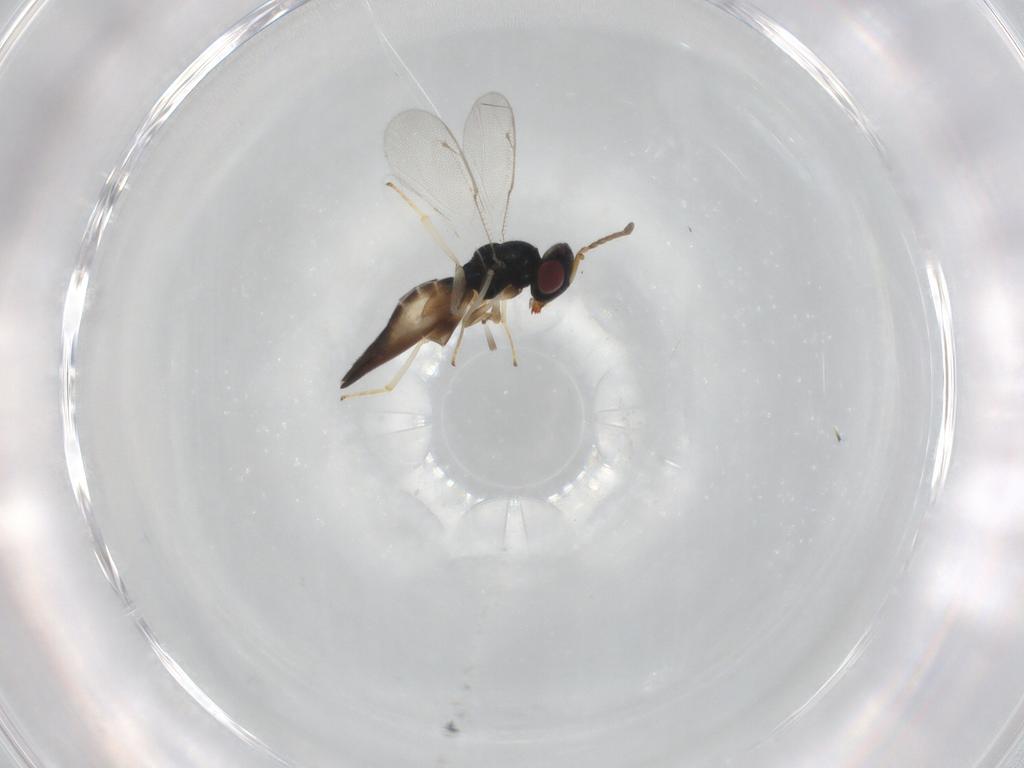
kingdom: Animalia
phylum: Arthropoda
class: Insecta
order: Hymenoptera
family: Pteromalidae
